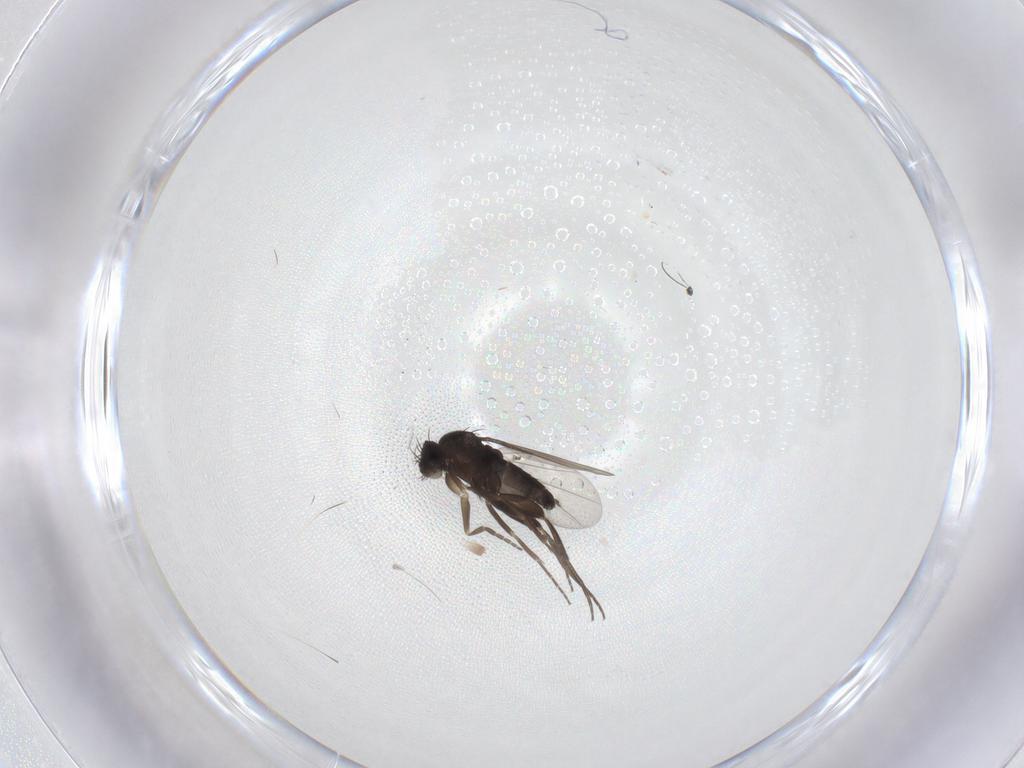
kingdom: Animalia
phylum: Arthropoda
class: Insecta
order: Diptera
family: Phoridae
